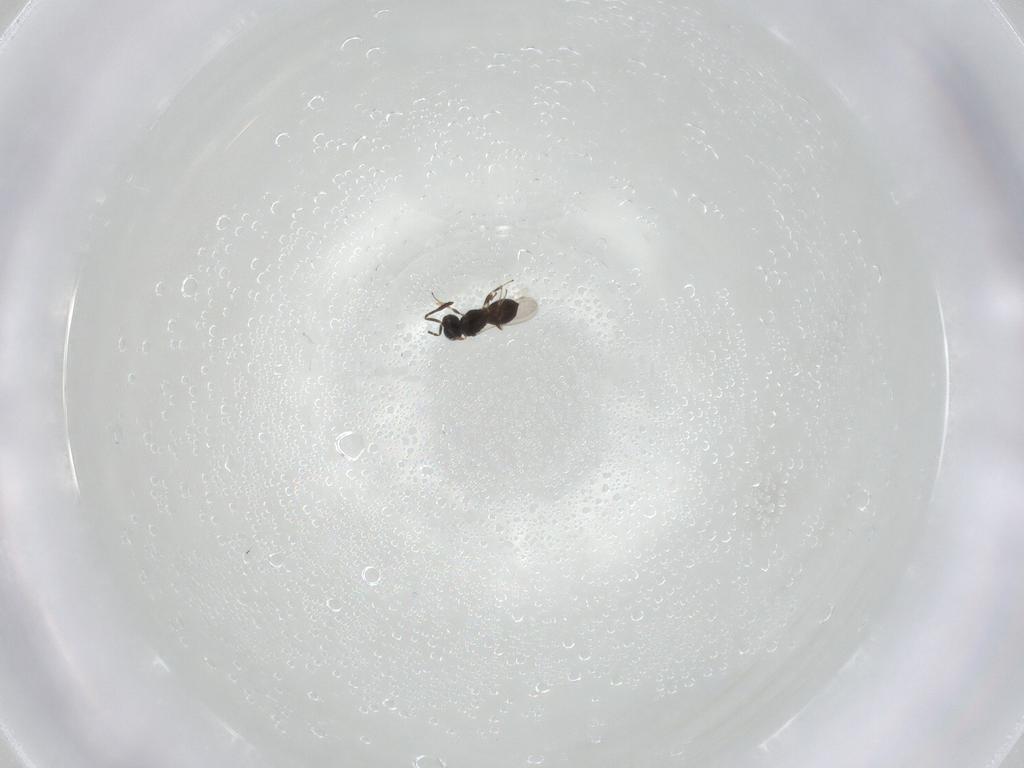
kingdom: Animalia
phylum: Arthropoda
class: Insecta
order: Hymenoptera
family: Scelionidae
